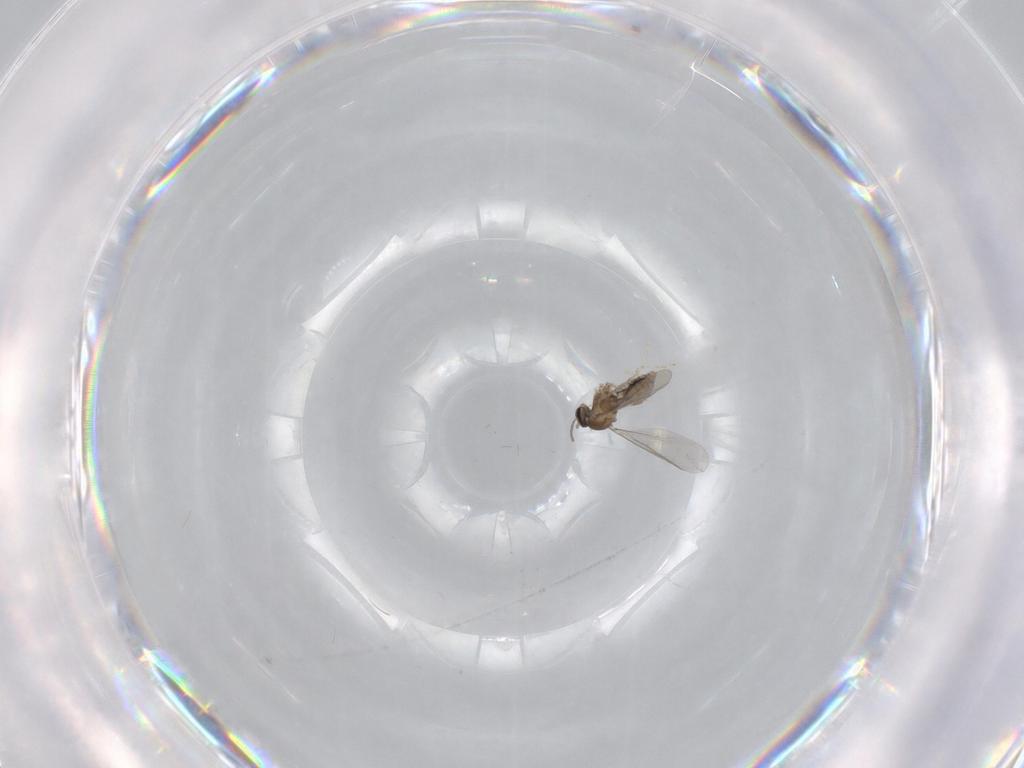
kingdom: Animalia
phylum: Arthropoda
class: Insecta
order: Diptera
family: Cecidomyiidae
